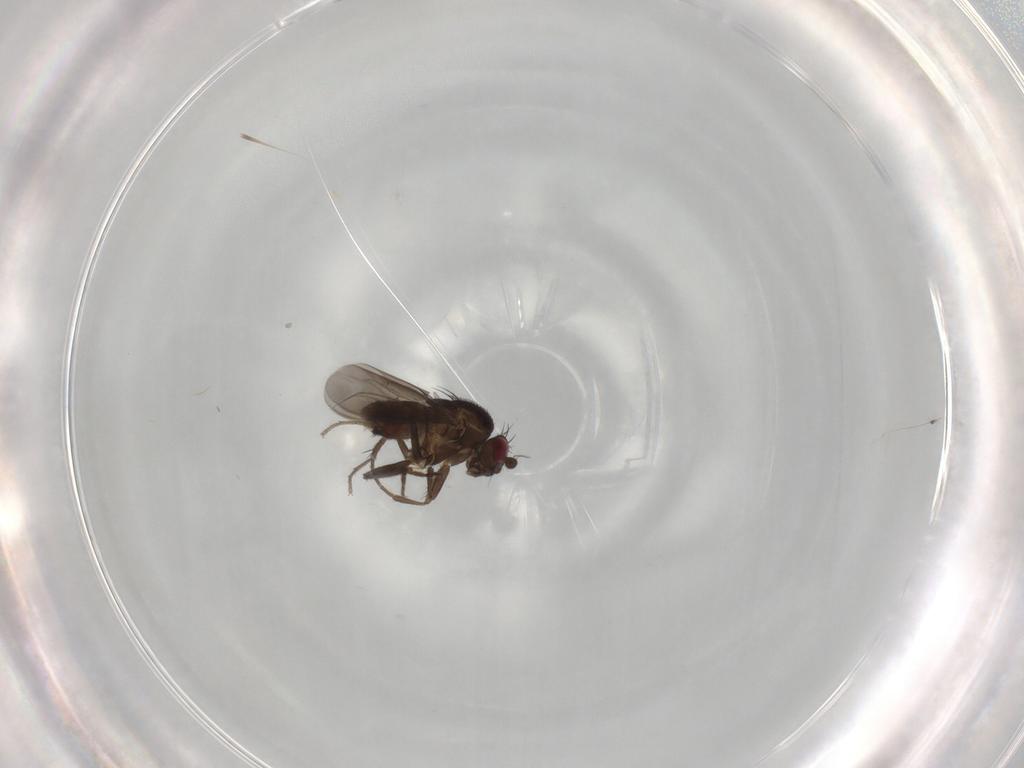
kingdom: Animalia
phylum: Arthropoda
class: Insecta
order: Diptera
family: Sphaeroceridae
